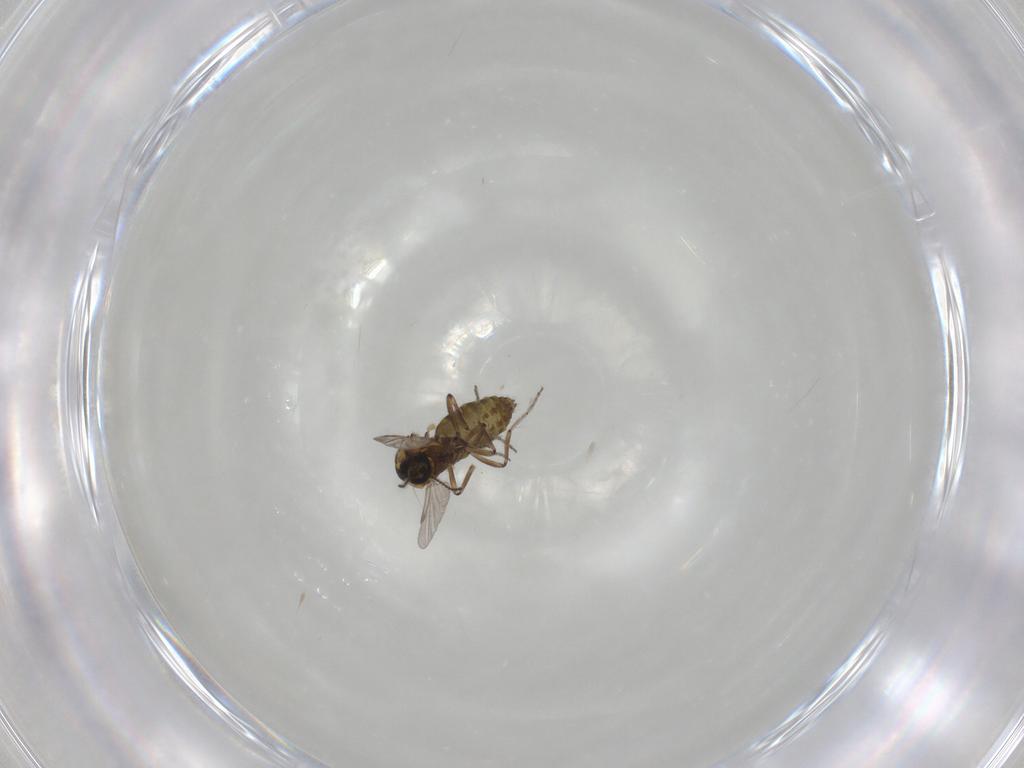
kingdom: Animalia
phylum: Arthropoda
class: Insecta
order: Diptera
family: Ceratopogonidae
